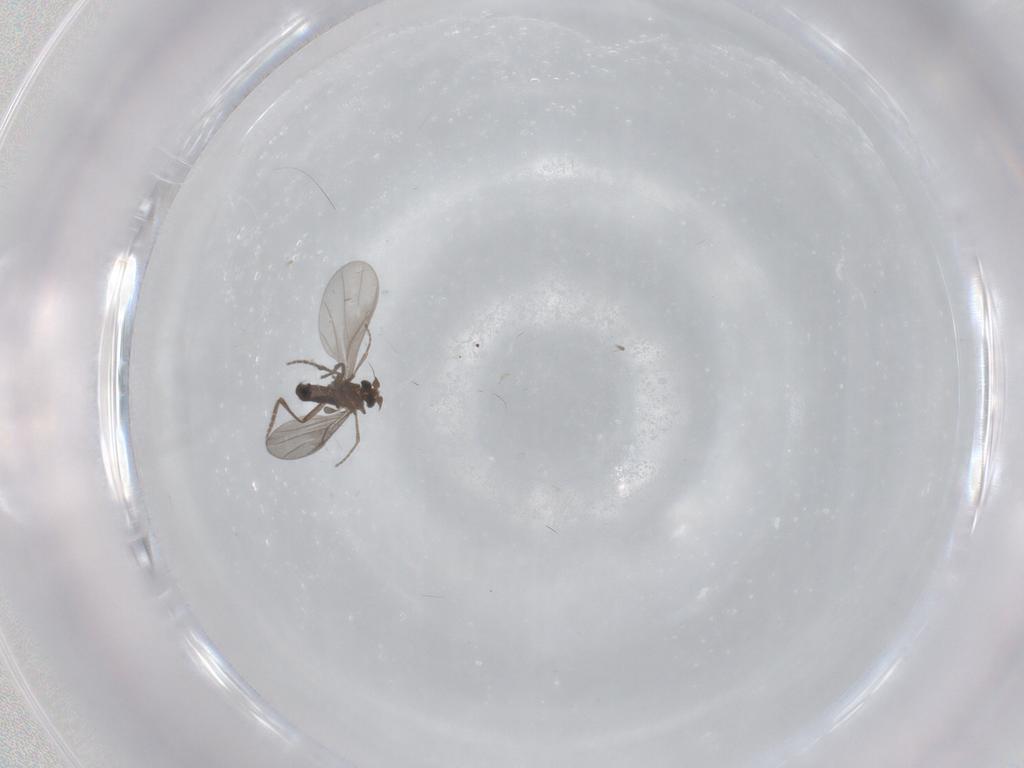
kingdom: Animalia
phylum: Arthropoda
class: Insecta
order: Diptera
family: Phoridae
